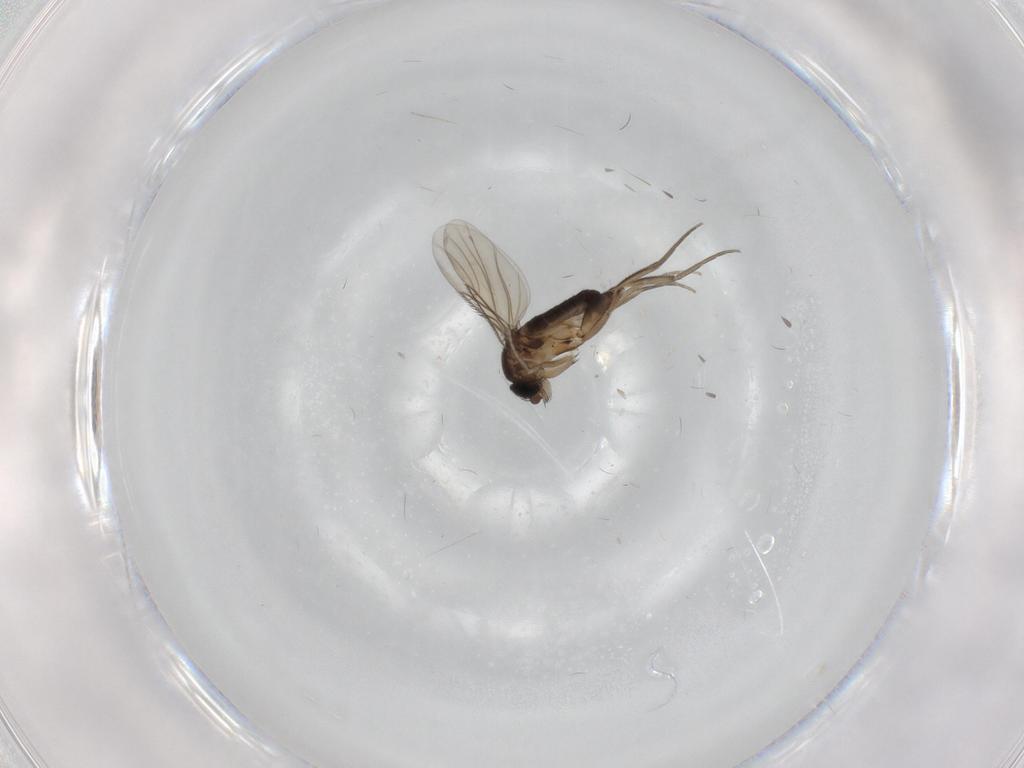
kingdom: Animalia
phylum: Arthropoda
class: Insecta
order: Diptera
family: Phoridae
